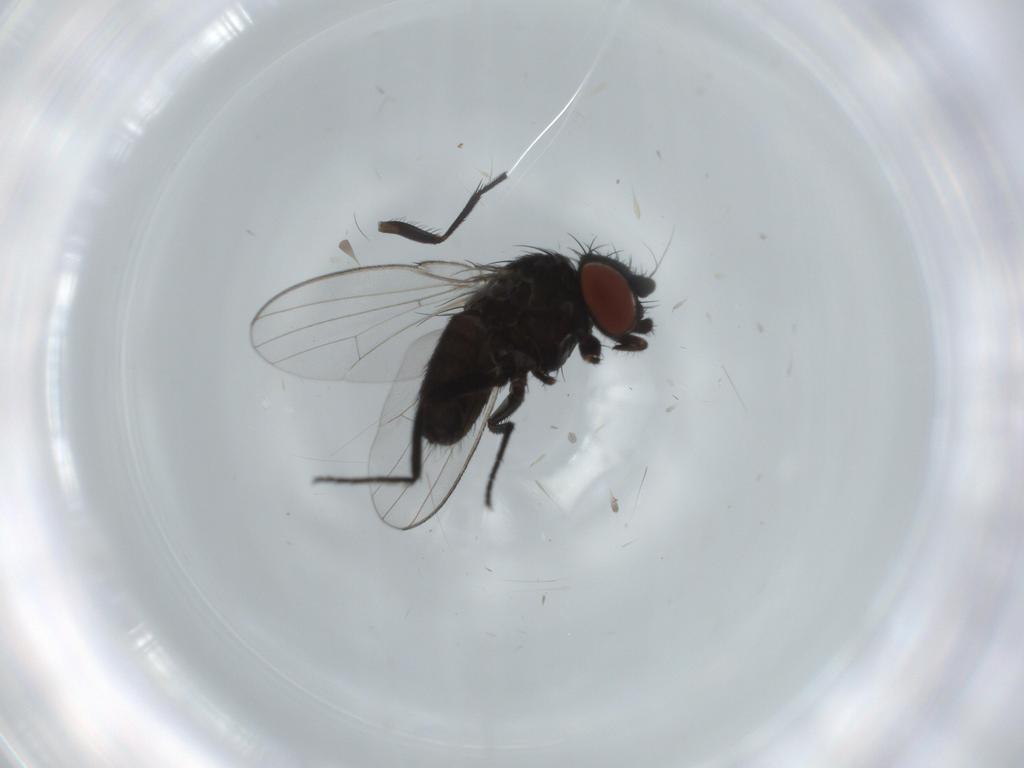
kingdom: Animalia
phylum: Arthropoda
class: Insecta
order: Diptera
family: Milichiidae
